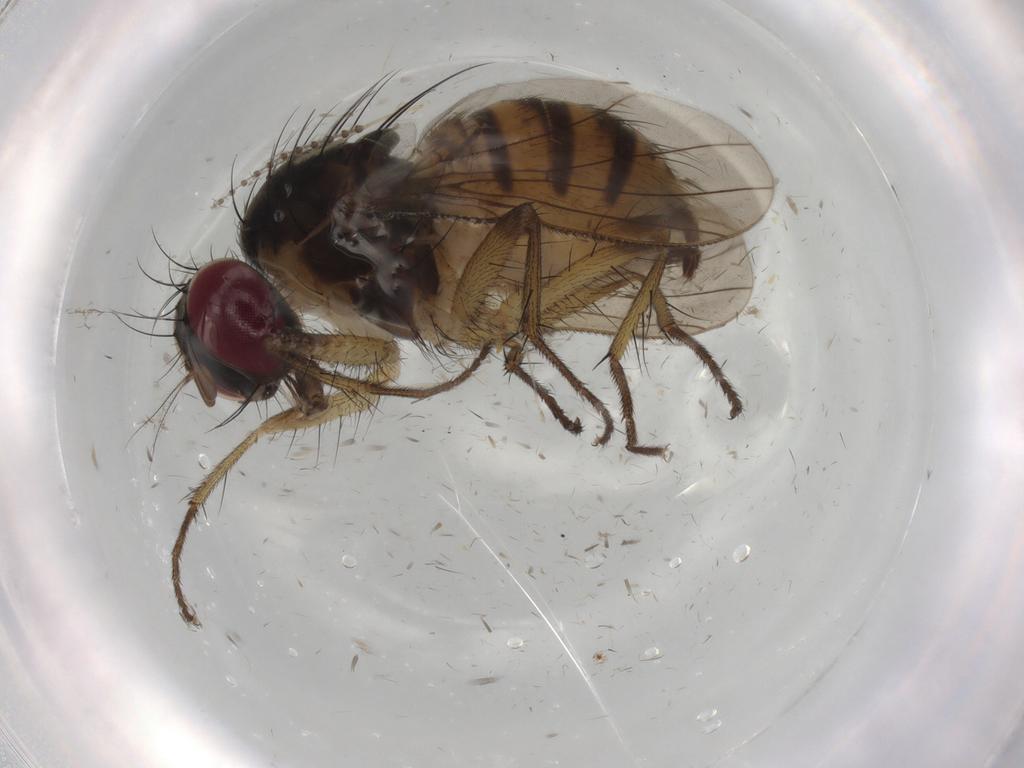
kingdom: Animalia
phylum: Arthropoda
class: Insecta
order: Diptera
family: Muscidae
